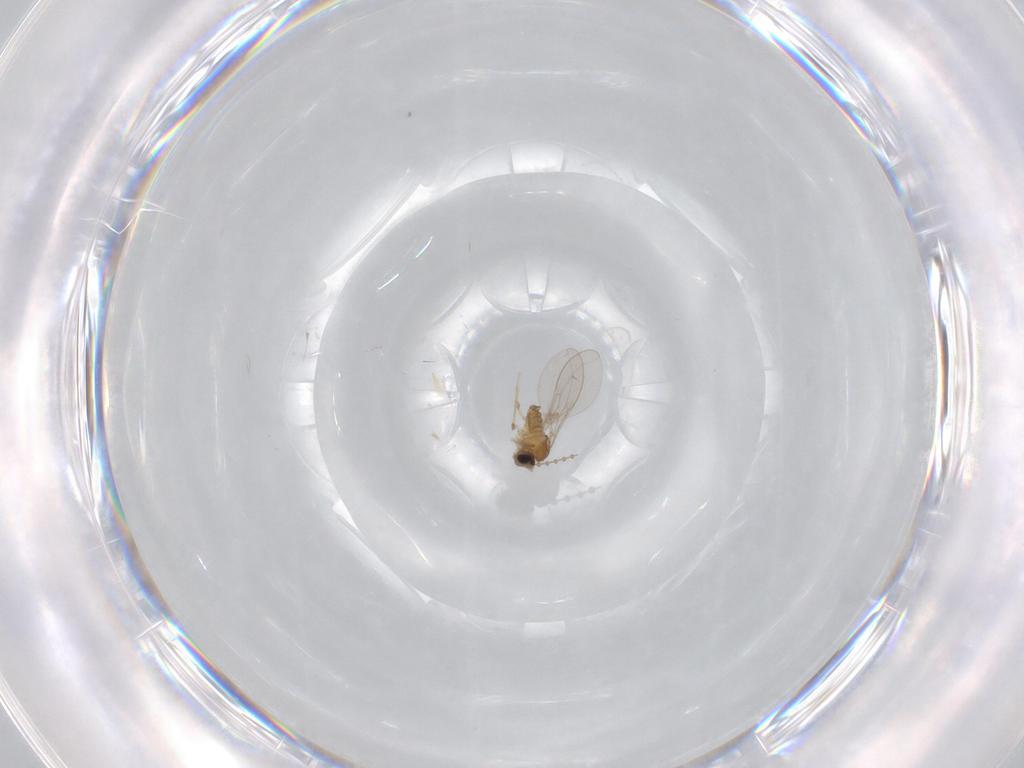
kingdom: Animalia
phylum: Arthropoda
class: Insecta
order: Diptera
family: Cecidomyiidae
